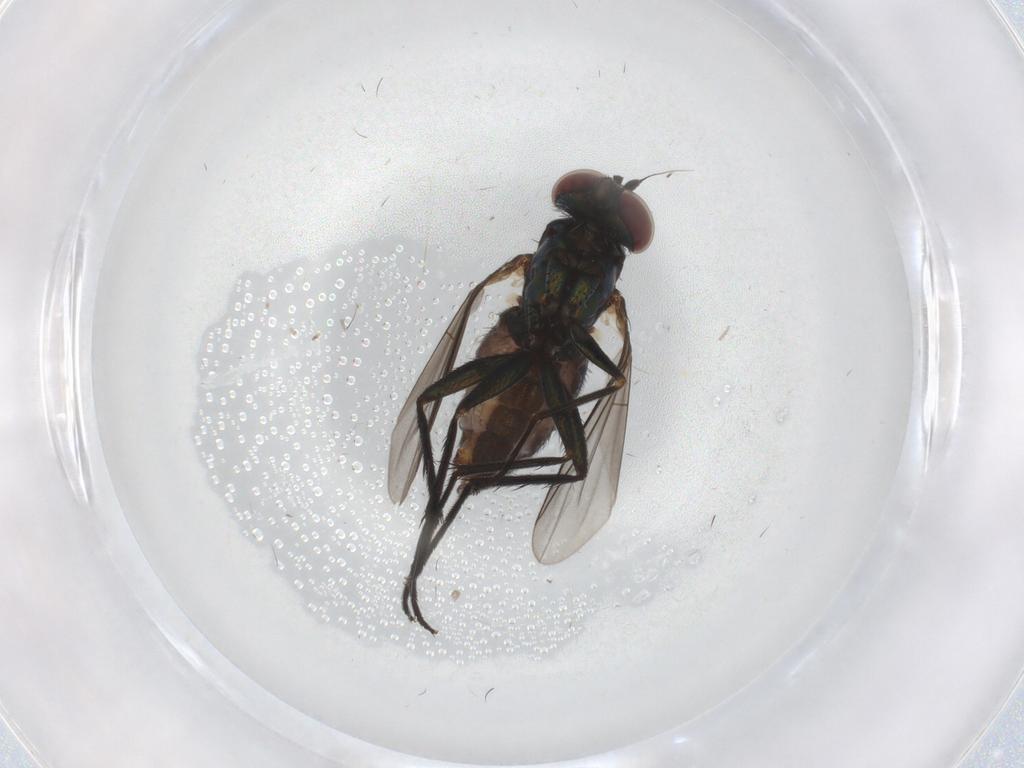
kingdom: Animalia
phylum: Arthropoda
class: Insecta
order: Diptera
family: Dolichopodidae
